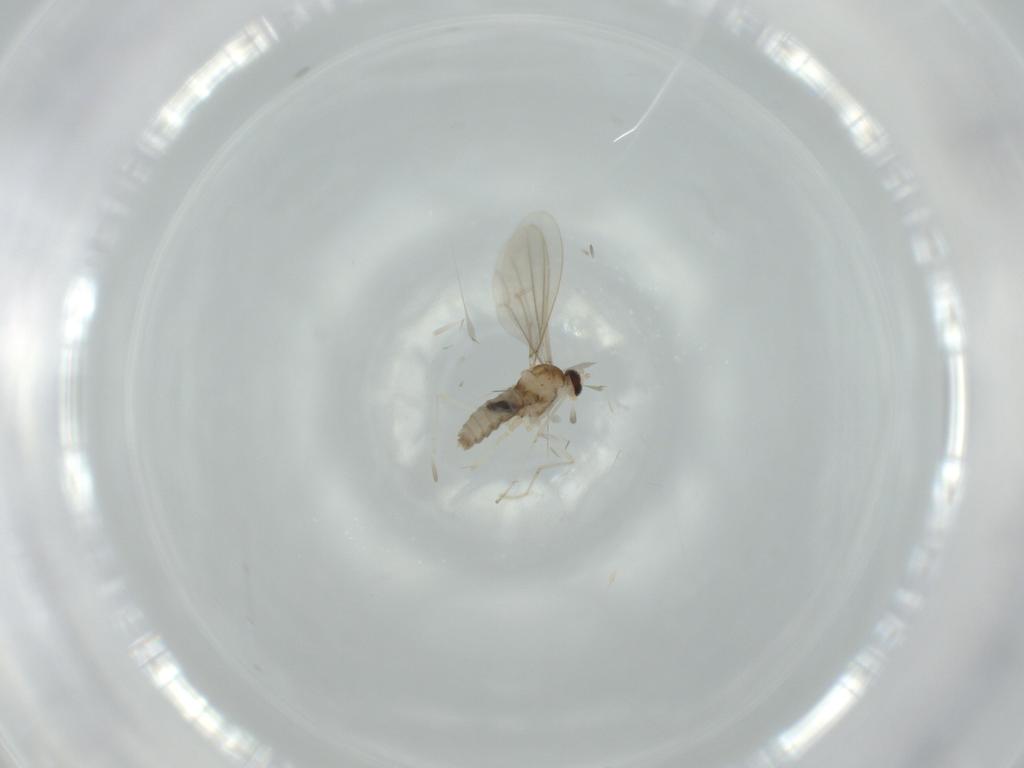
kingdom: Animalia
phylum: Arthropoda
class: Insecta
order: Diptera
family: Cecidomyiidae
